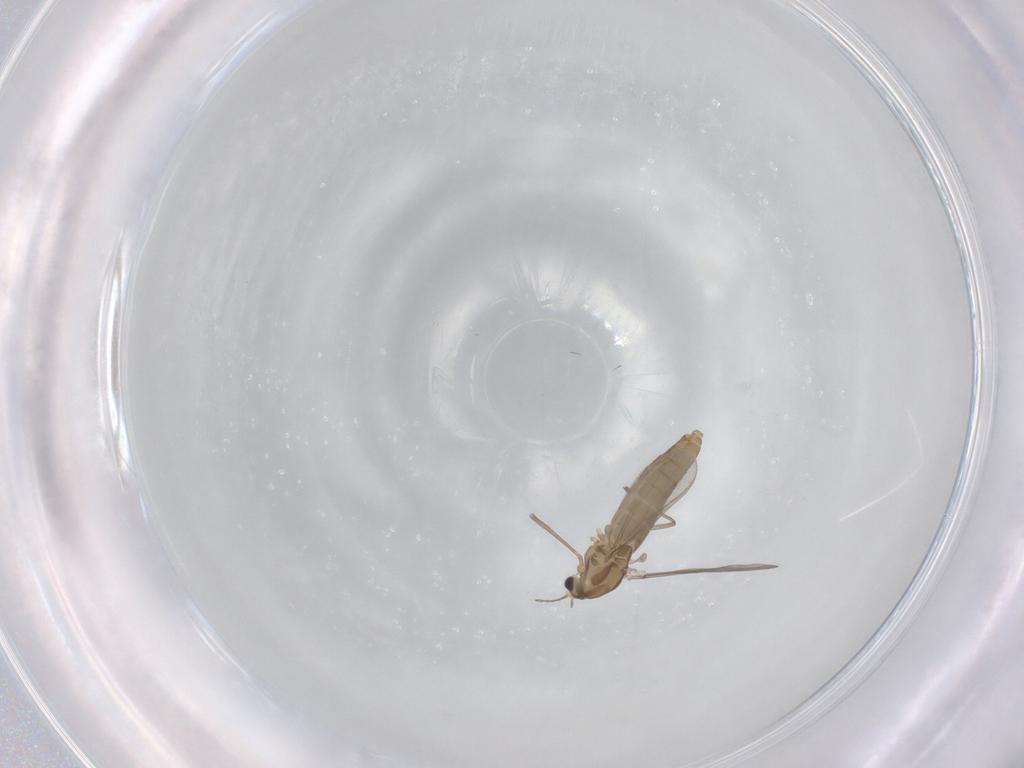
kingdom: Animalia
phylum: Arthropoda
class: Insecta
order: Diptera
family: Chironomidae
